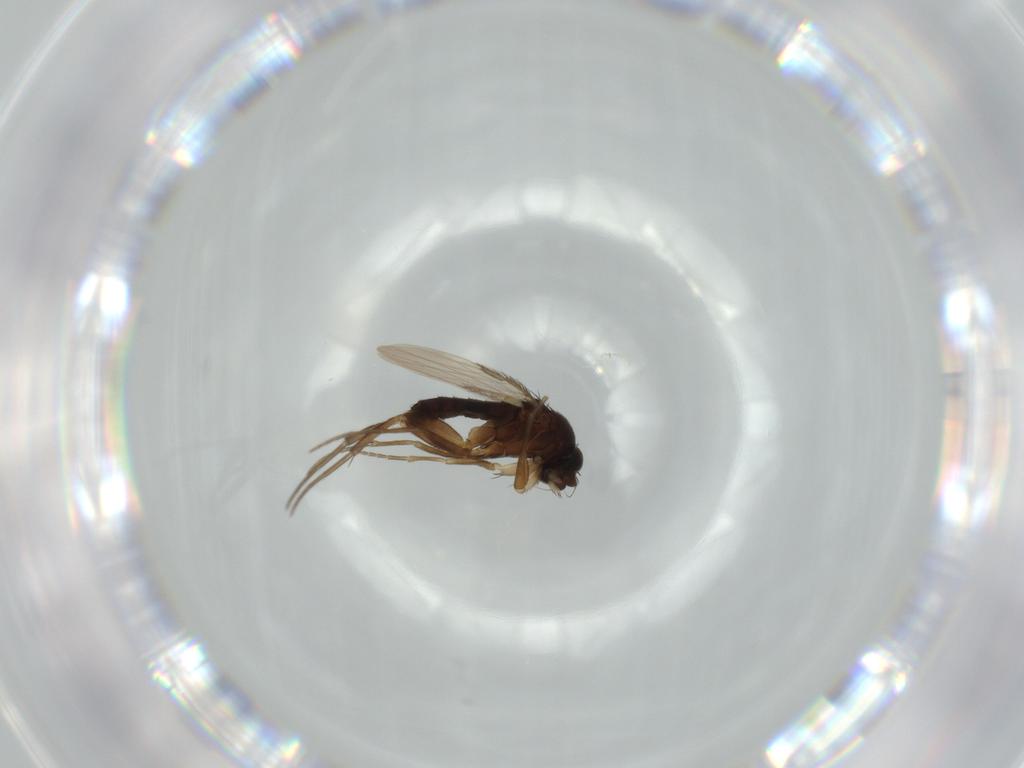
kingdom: Animalia
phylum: Arthropoda
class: Insecta
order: Diptera
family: Phoridae
